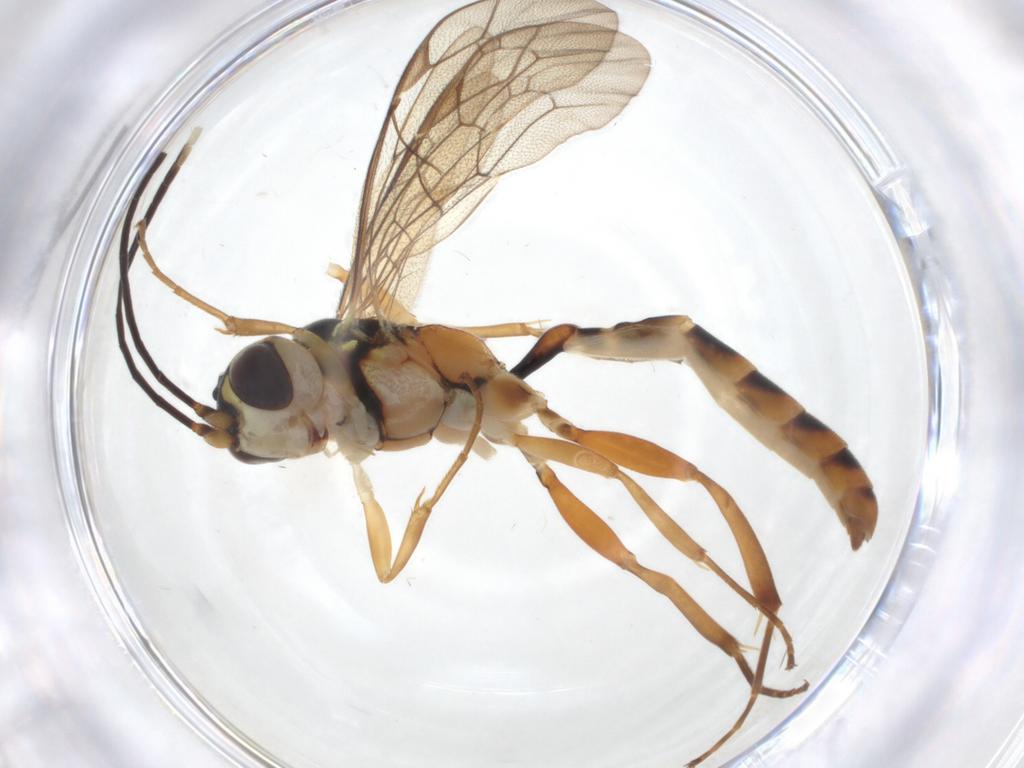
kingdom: Animalia
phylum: Arthropoda
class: Insecta
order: Hymenoptera
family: Ichneumonidae
